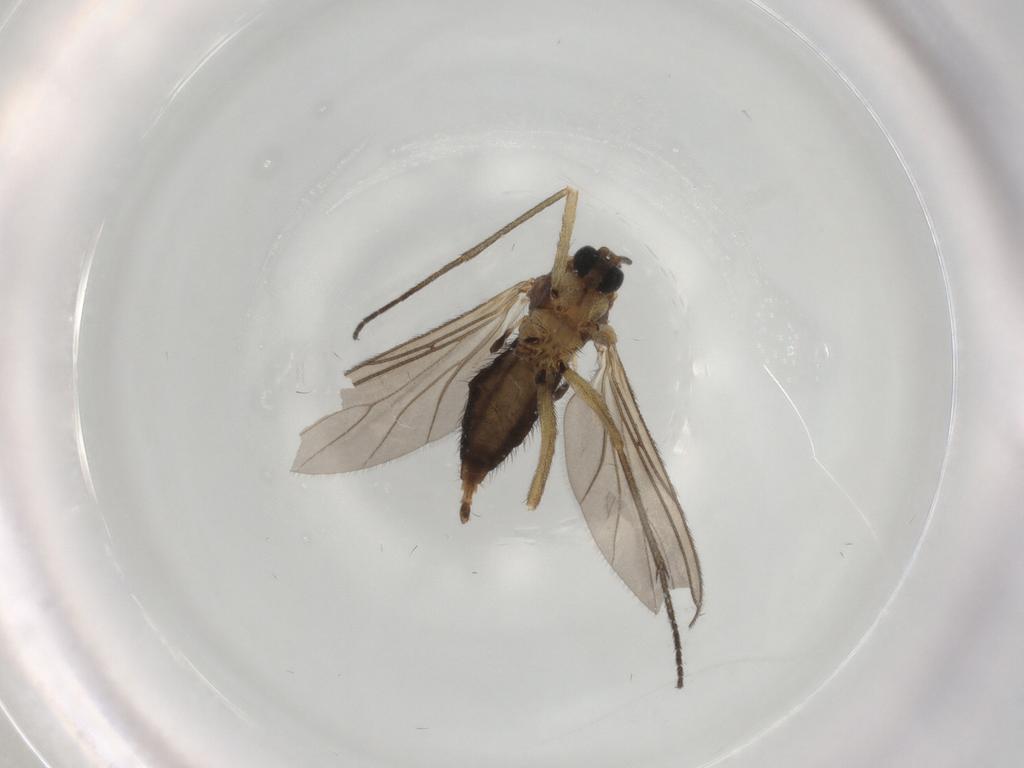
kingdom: Animalia
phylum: Arthropoda
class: Insecta
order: Diptera
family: Sciaridae
